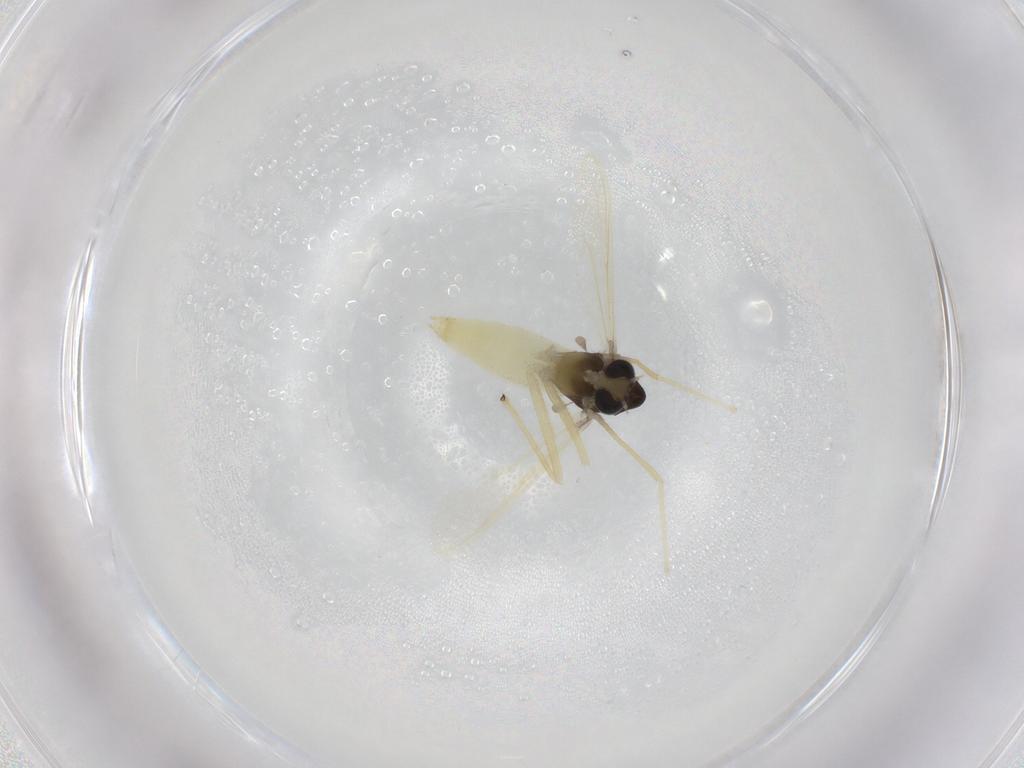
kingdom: Animalia
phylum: Arthropoda
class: Insecta
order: Diptera
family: Chironomidae
